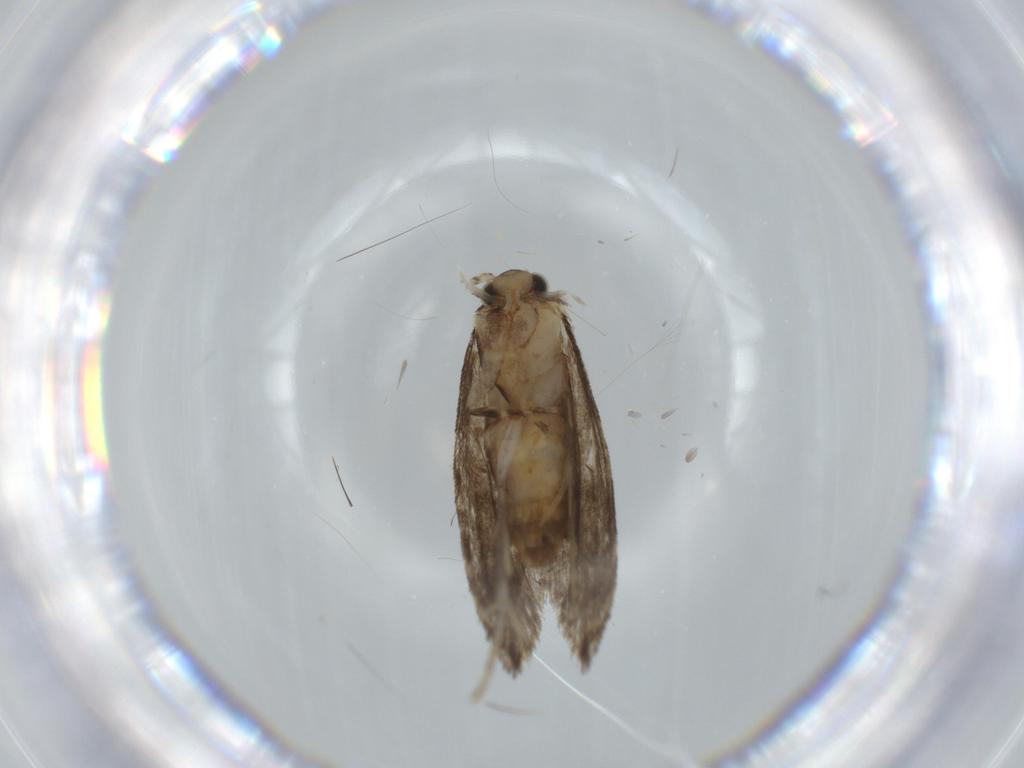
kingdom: Animalia
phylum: Arthropoda
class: Insecta
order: Lepidoptera
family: Tineidae
